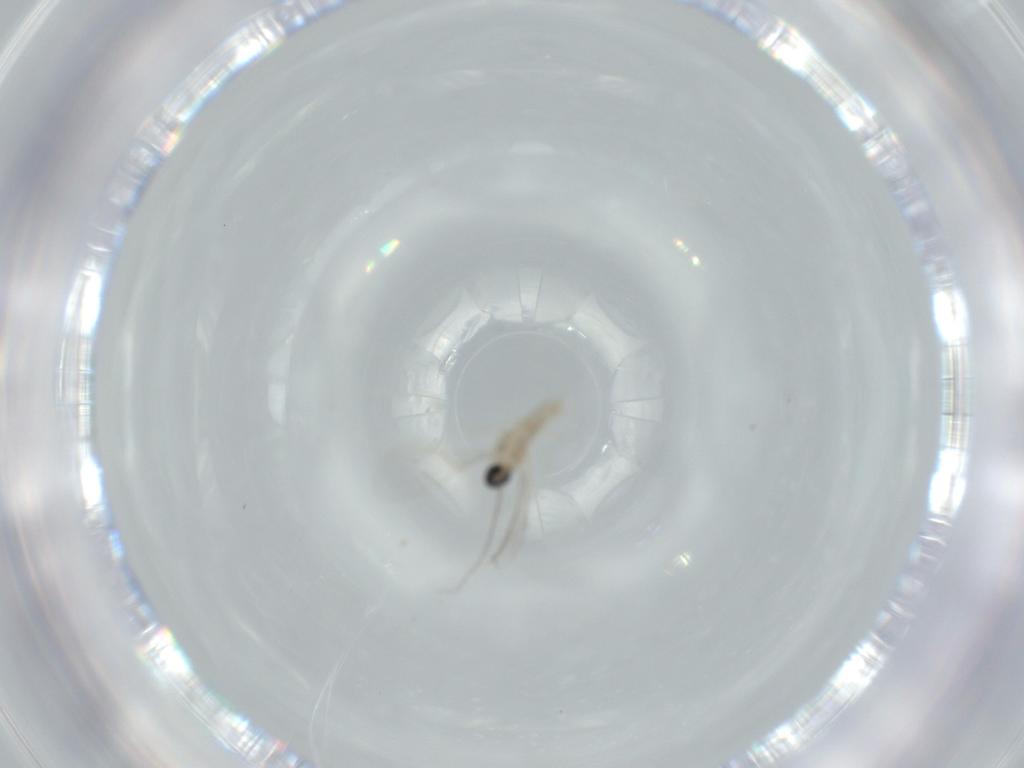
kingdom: Animalia
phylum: Arthropoda
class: Insecta
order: Diptera
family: Cecidomyiidae
